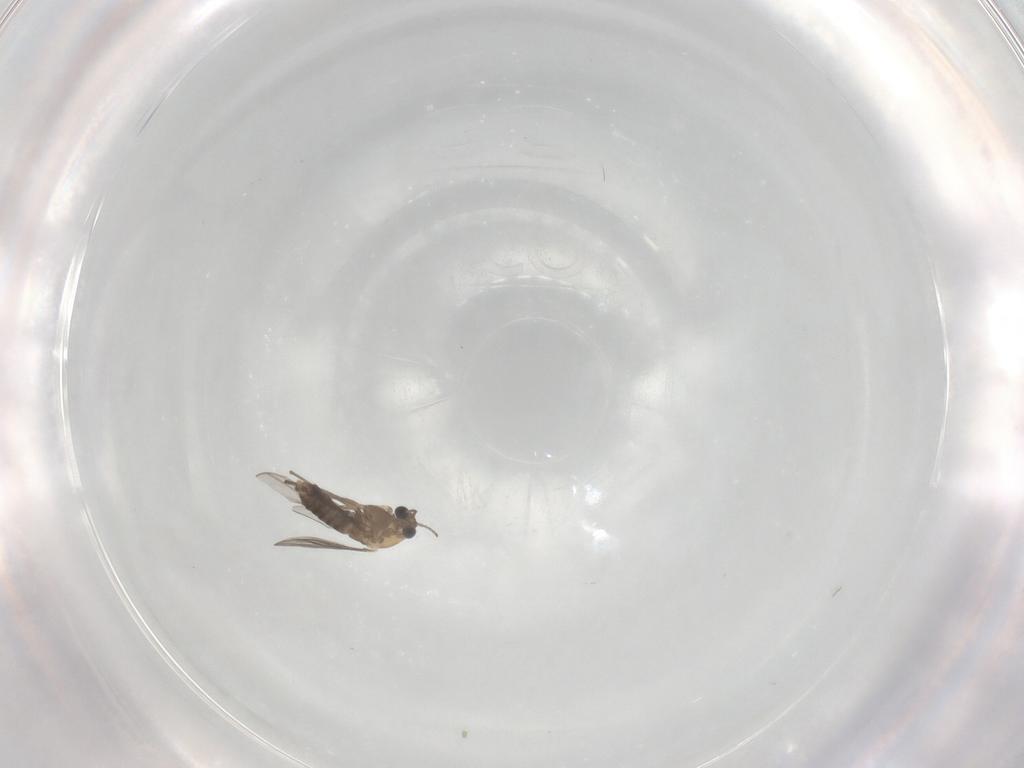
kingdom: Animalia
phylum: Arthropoda
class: Insecta
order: Diptera
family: Chironomidae
